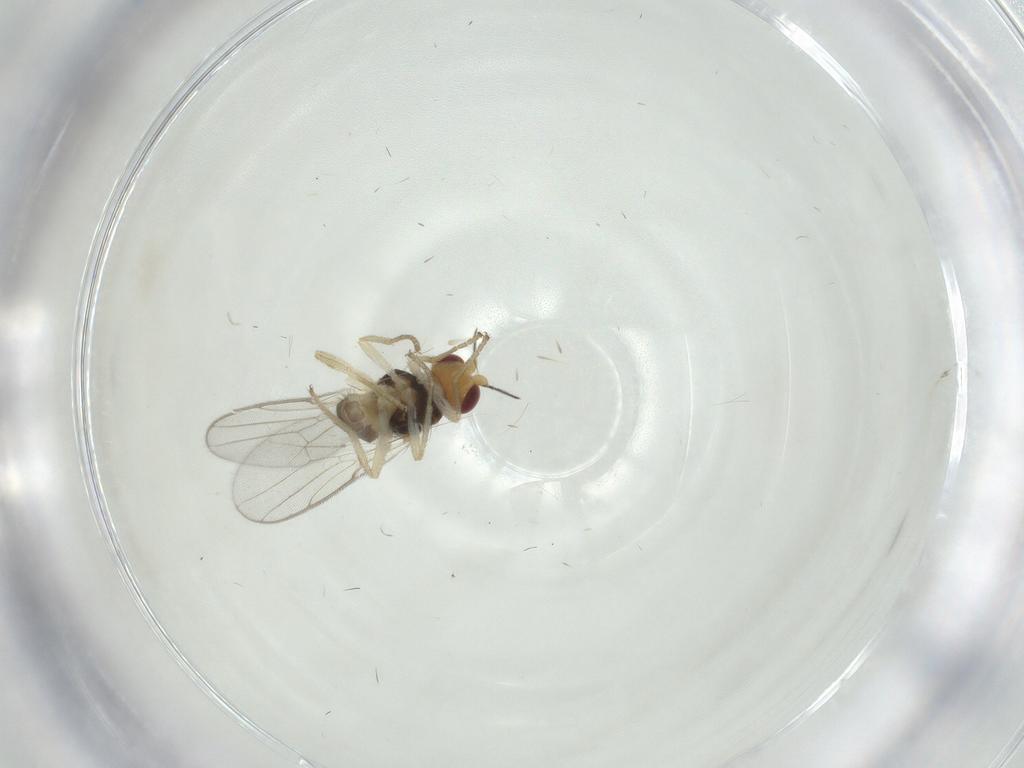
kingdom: Animalia
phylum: Arthropoda
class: Insecta
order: Diptera
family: Chloropidae
